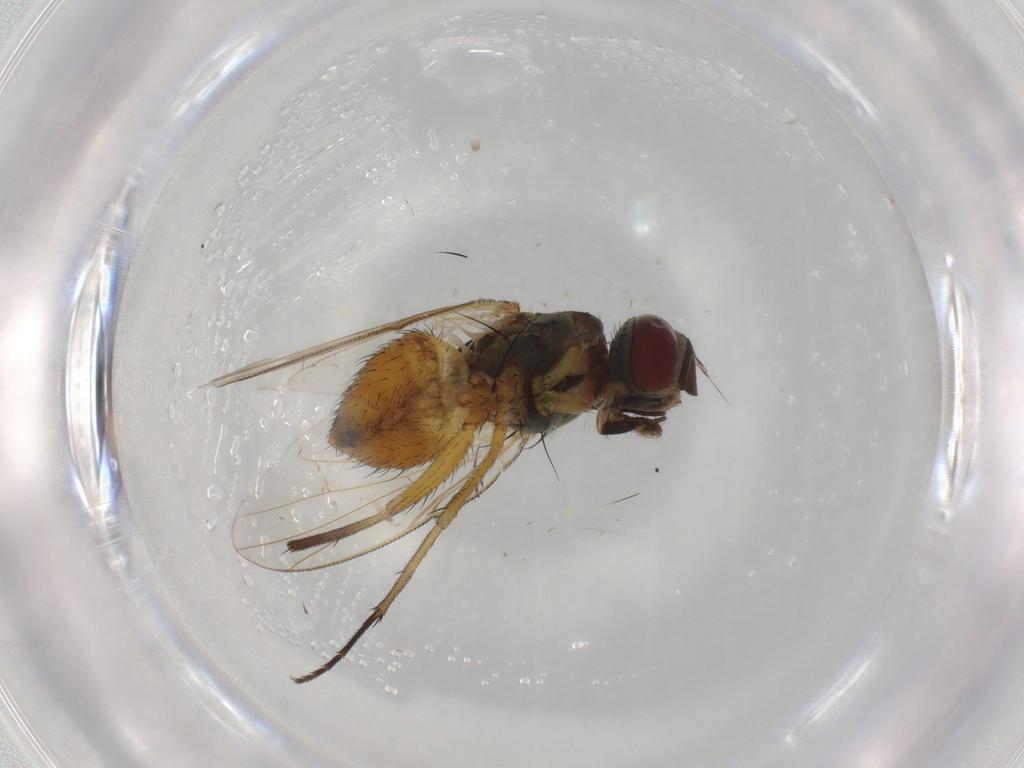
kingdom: Animalia
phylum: Arthropoda
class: Insecta
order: Diptera
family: Muscidae
